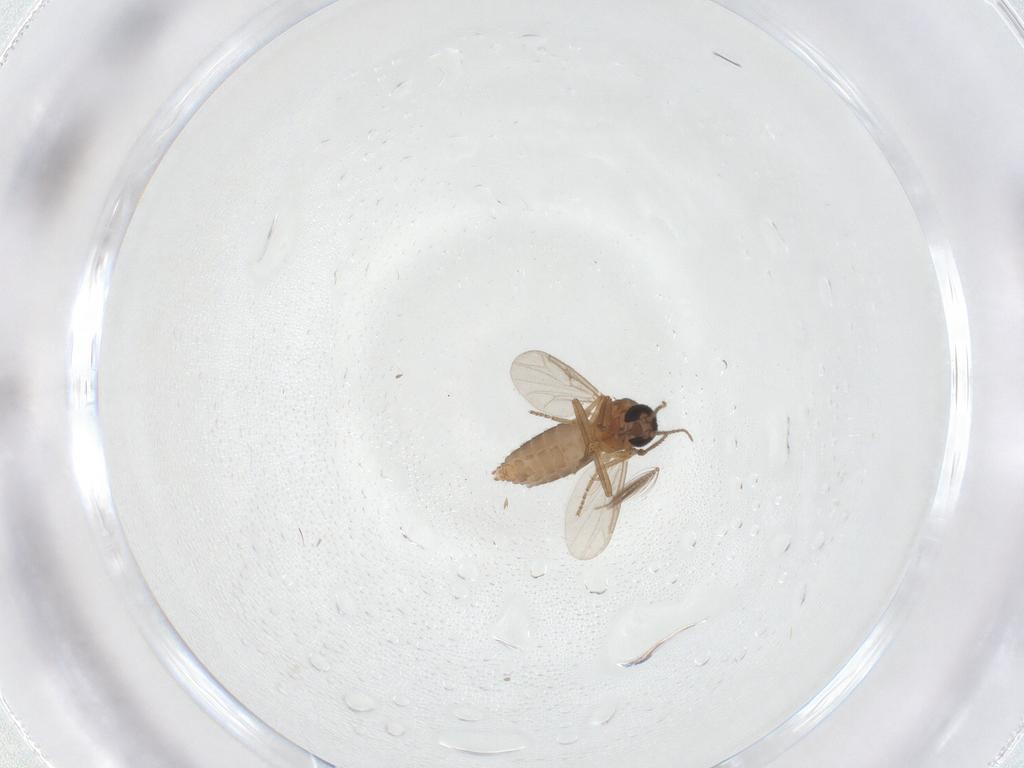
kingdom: Animalia
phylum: Arthropoda
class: Insecta
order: Diptera
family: Ceratopogonidae
